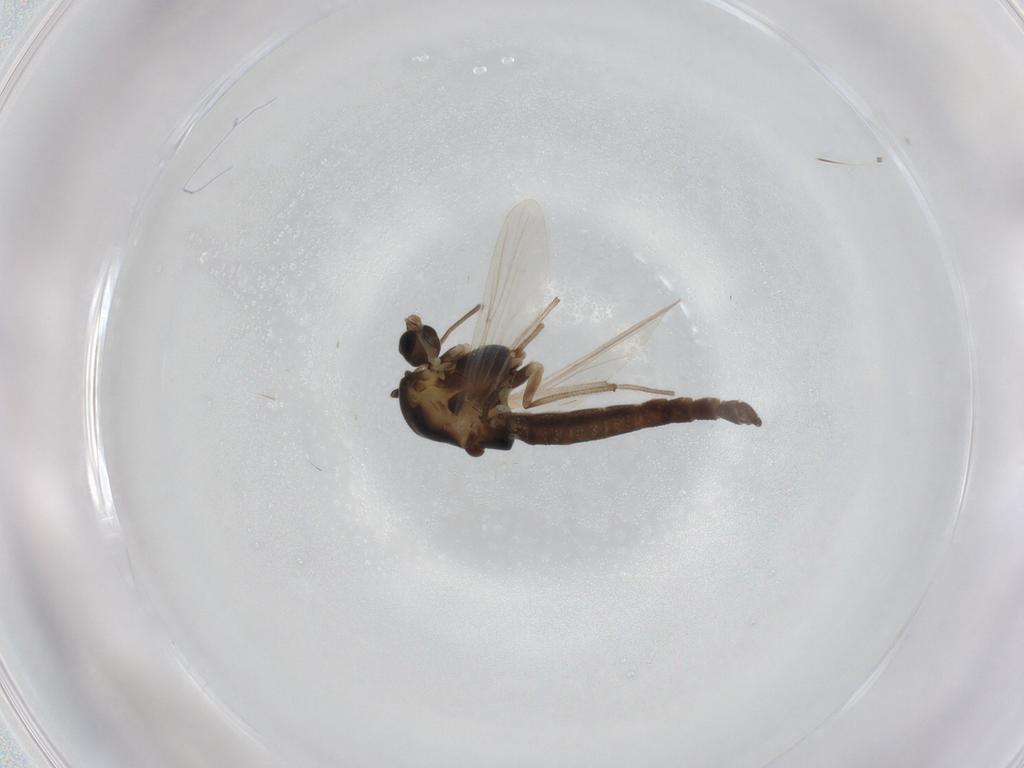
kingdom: Animalia
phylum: Arthropoda
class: Insecta
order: Diptera
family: Chironomidae
